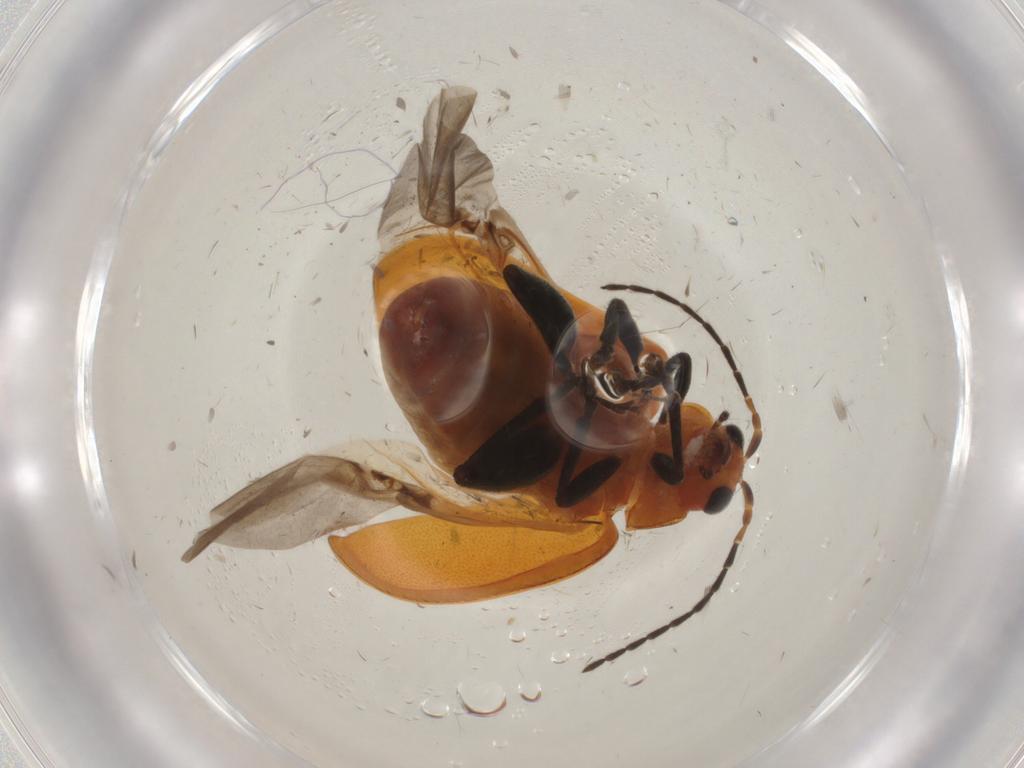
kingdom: Animalia
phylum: Arthropoda
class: Insecta
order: Coleoptera
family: Chrysomelidae
